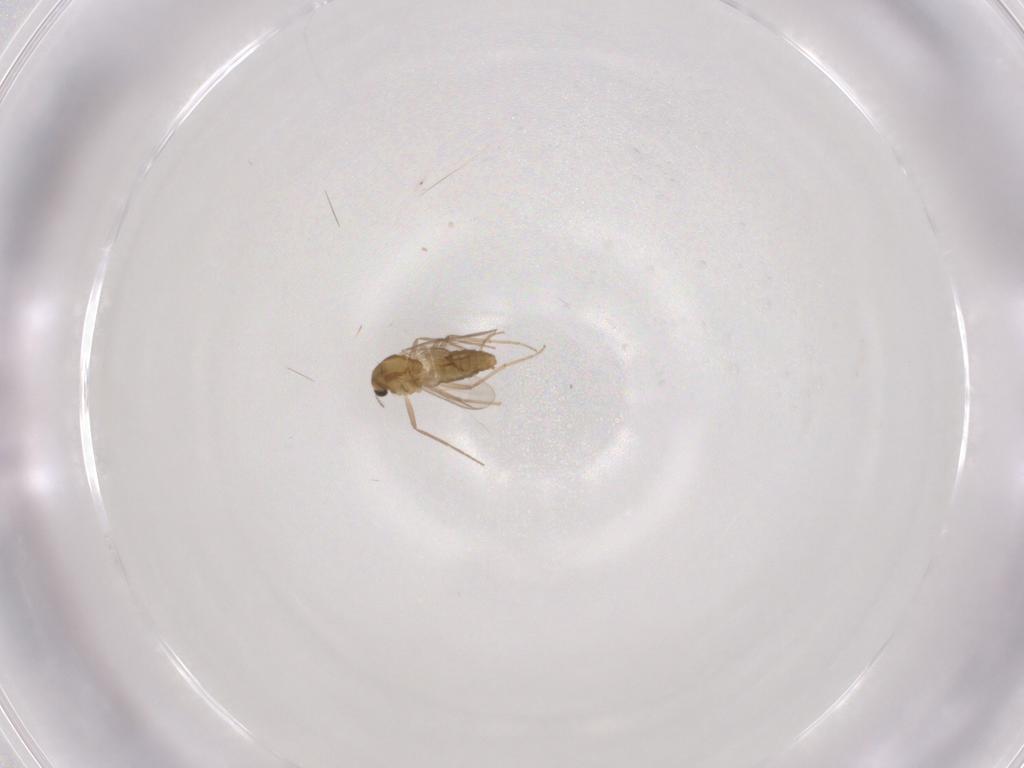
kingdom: Animalia
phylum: Arthropoda
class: Insecta
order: Diptera
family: Chironomidae
